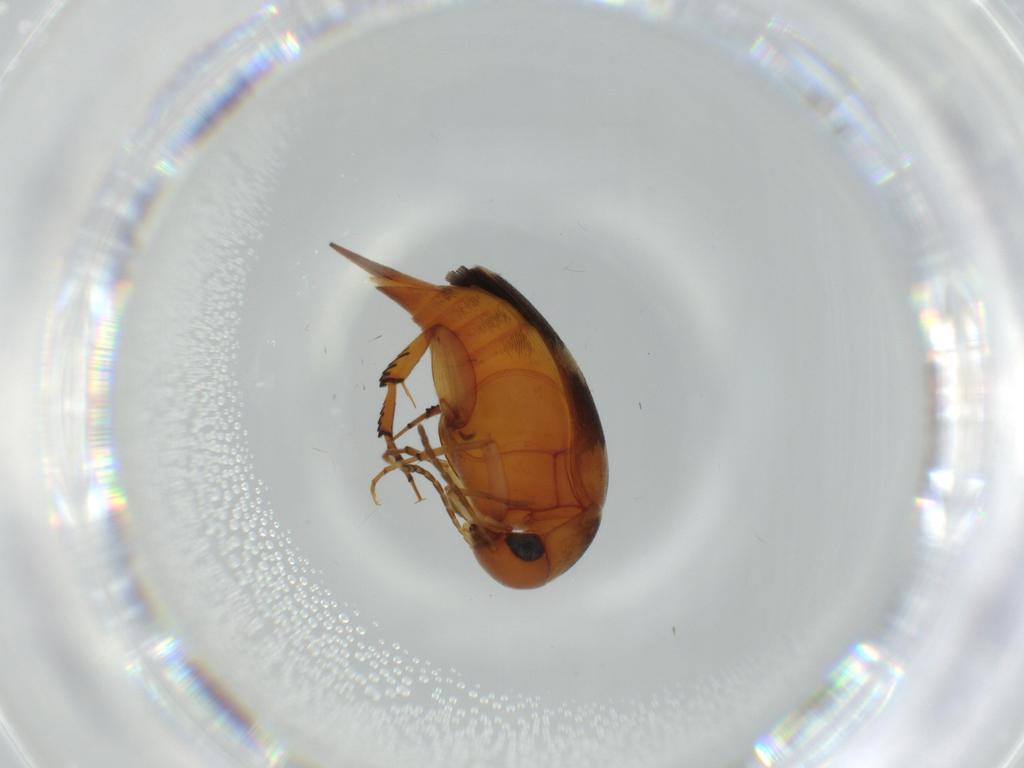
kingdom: Animalia
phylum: Arthropoda
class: Insecta
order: Coleoptera
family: Mordellidae
